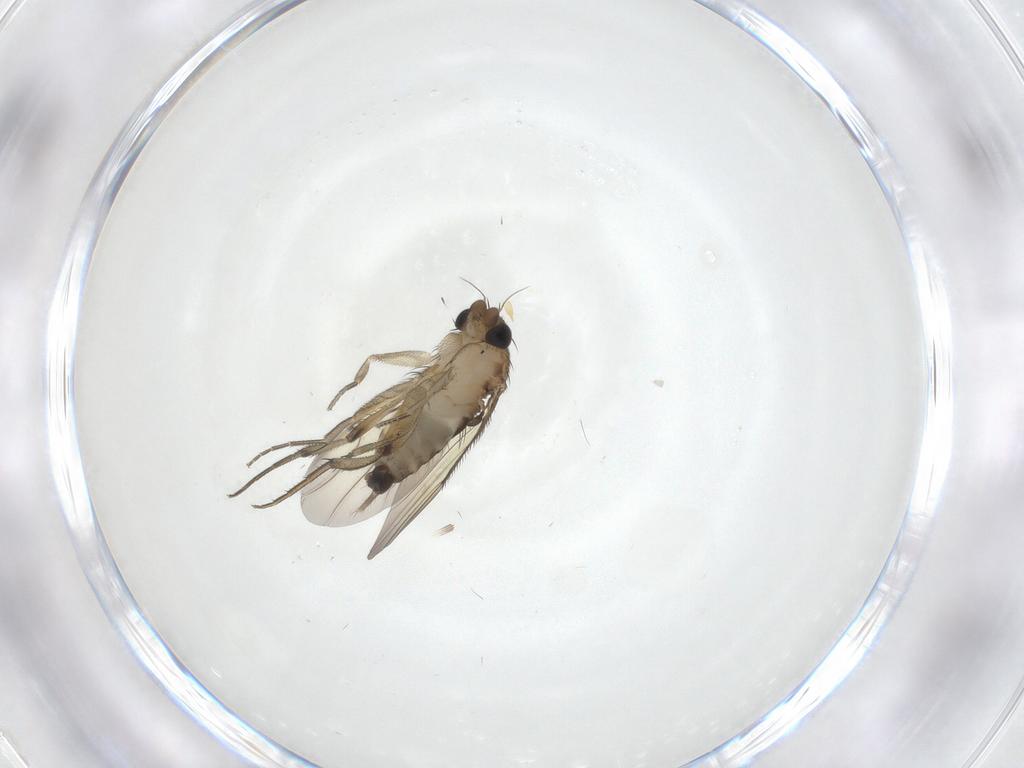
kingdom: Animalia
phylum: Arthropoda
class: Insecta
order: Diptera
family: Phoridae
